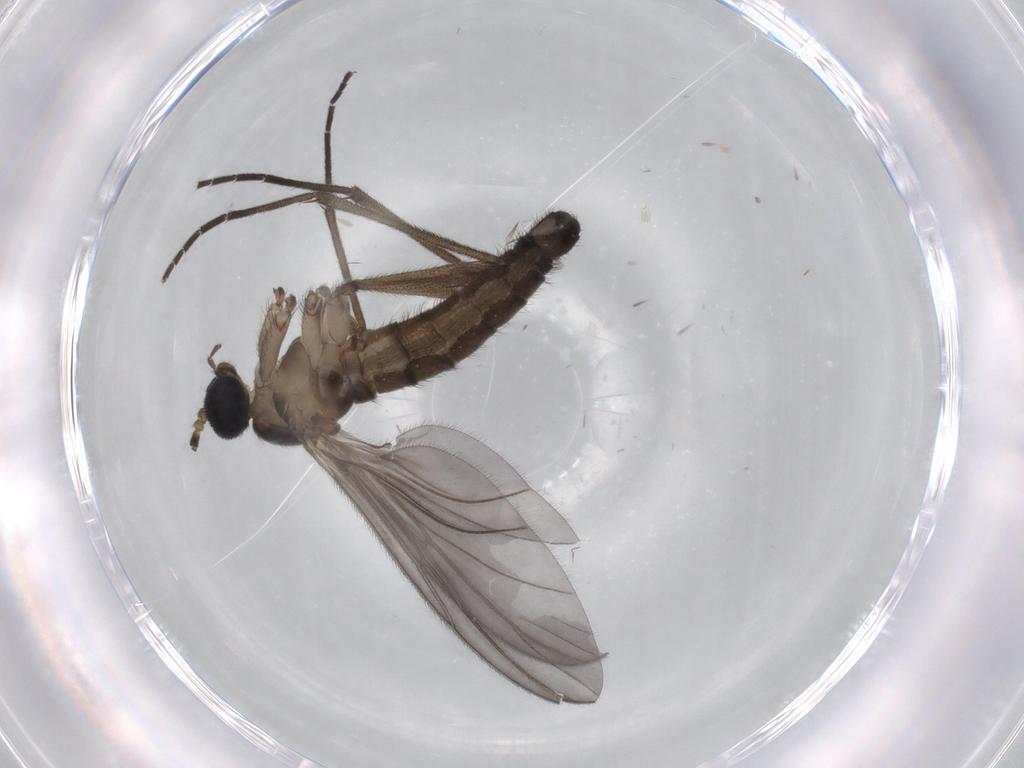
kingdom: Animalia
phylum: Arthropoda
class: Insecta
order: Diptera
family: Sciaridae
